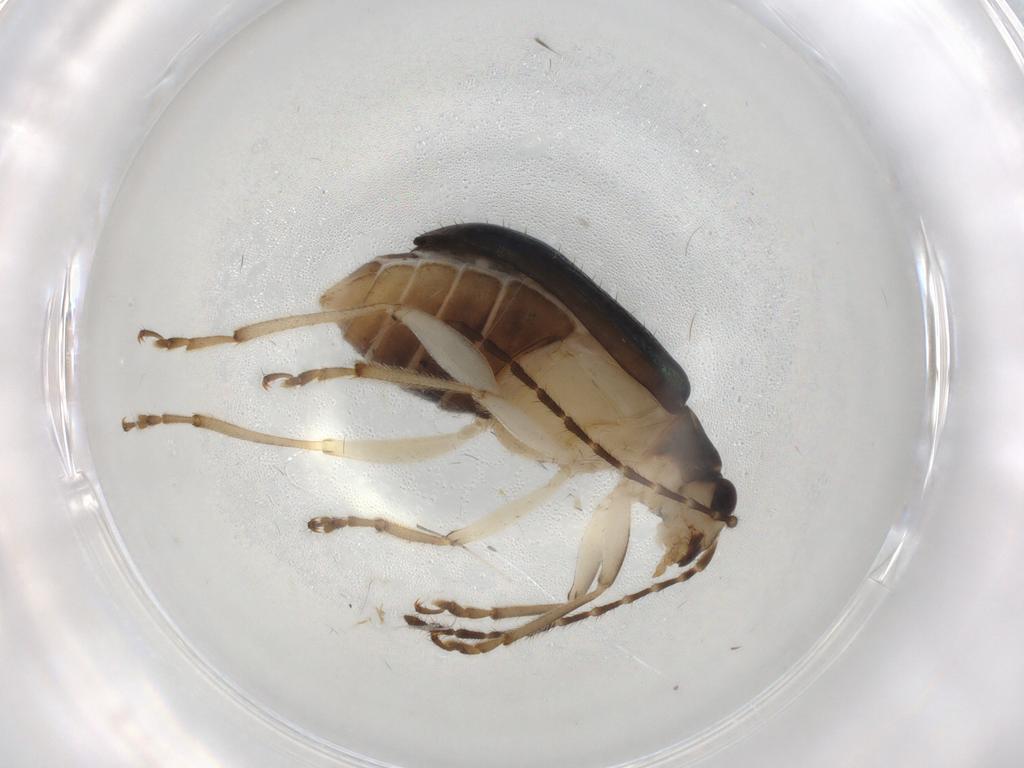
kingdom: Animalia
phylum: Arthropoda
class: Insecta
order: Coleoptera
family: Chrysomelidae
